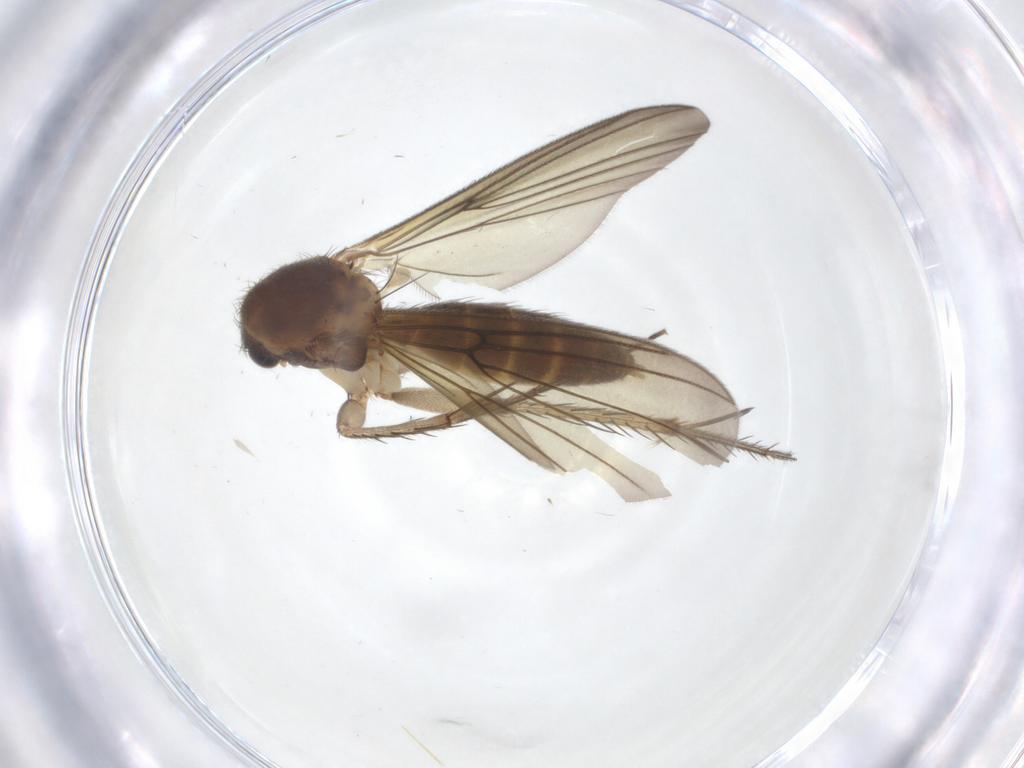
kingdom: Animalia
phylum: Arthropoda
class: Insecta
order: Diptera
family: Mycetophilidae
